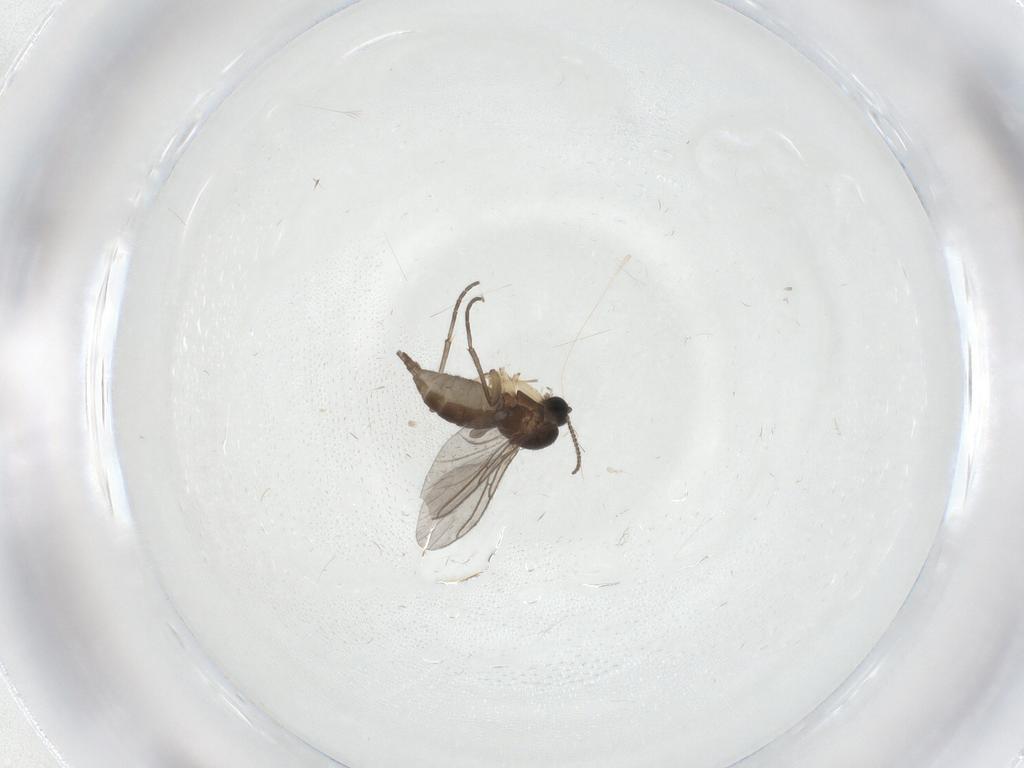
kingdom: Animalia
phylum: Arthropoda
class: Insecta
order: Diptera
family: Sciaridae
